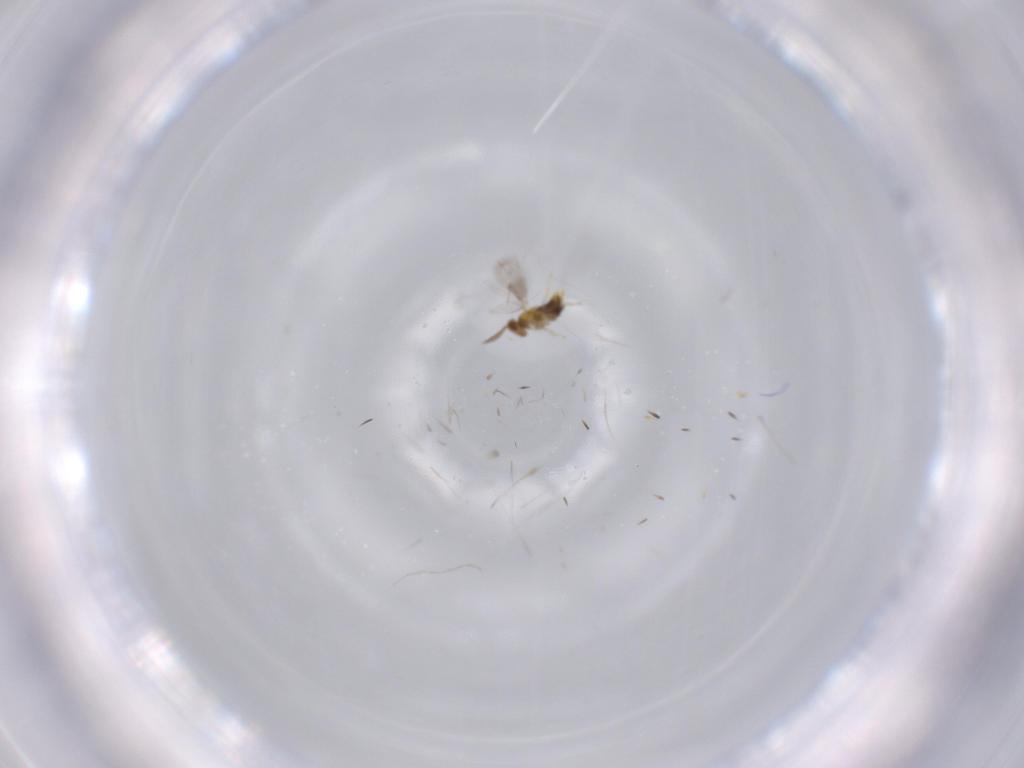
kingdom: Animalia
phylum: Arthropoda
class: Insecta
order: Hymenoptera
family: Aphelinidae
